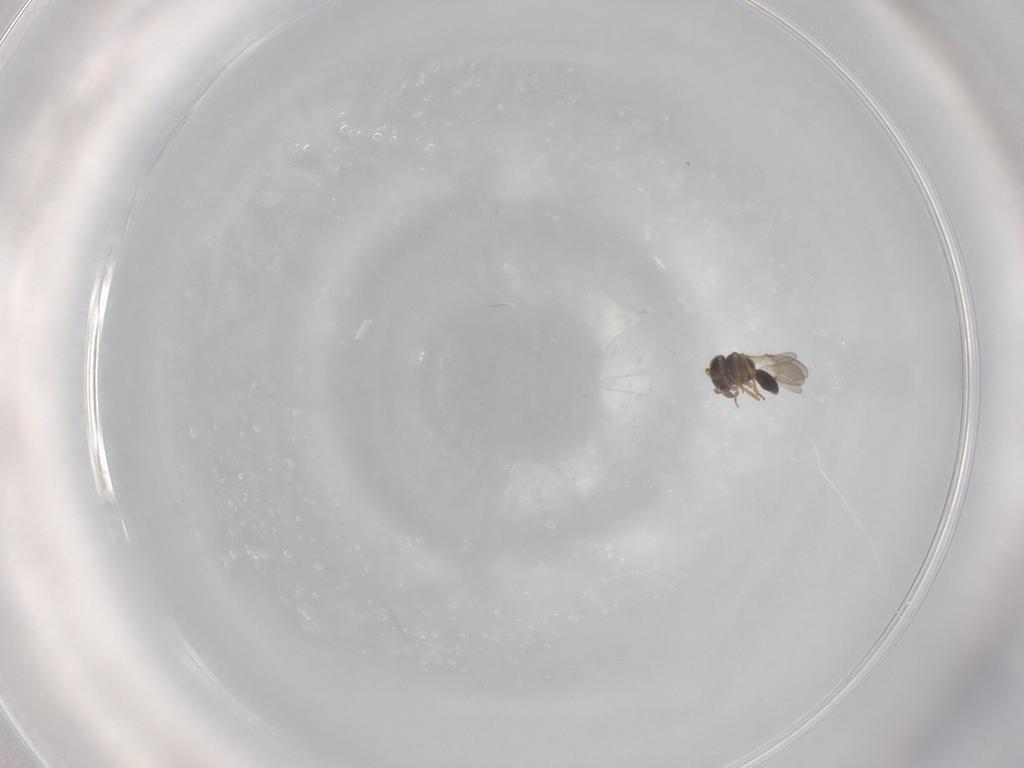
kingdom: Animalia
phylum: Arthropoda
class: Insecta
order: Hymenoptera
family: Scelionidae
